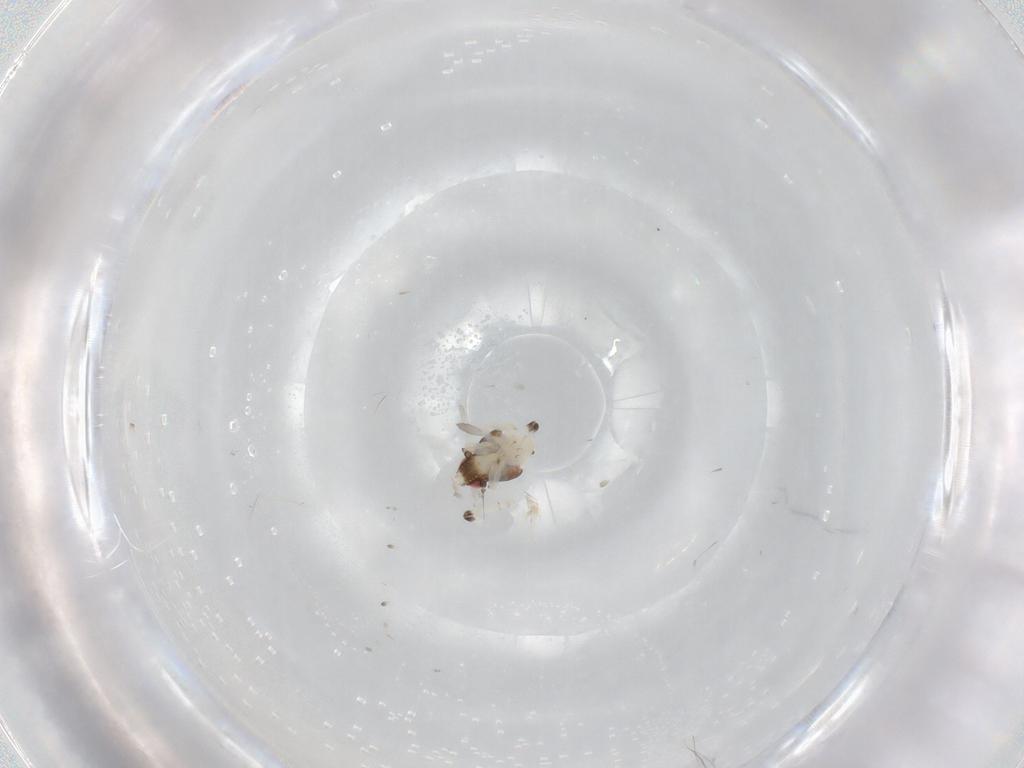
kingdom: Animalia
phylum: Arthropoda
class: Insecta
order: Hemiptera
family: Nogodinidae
